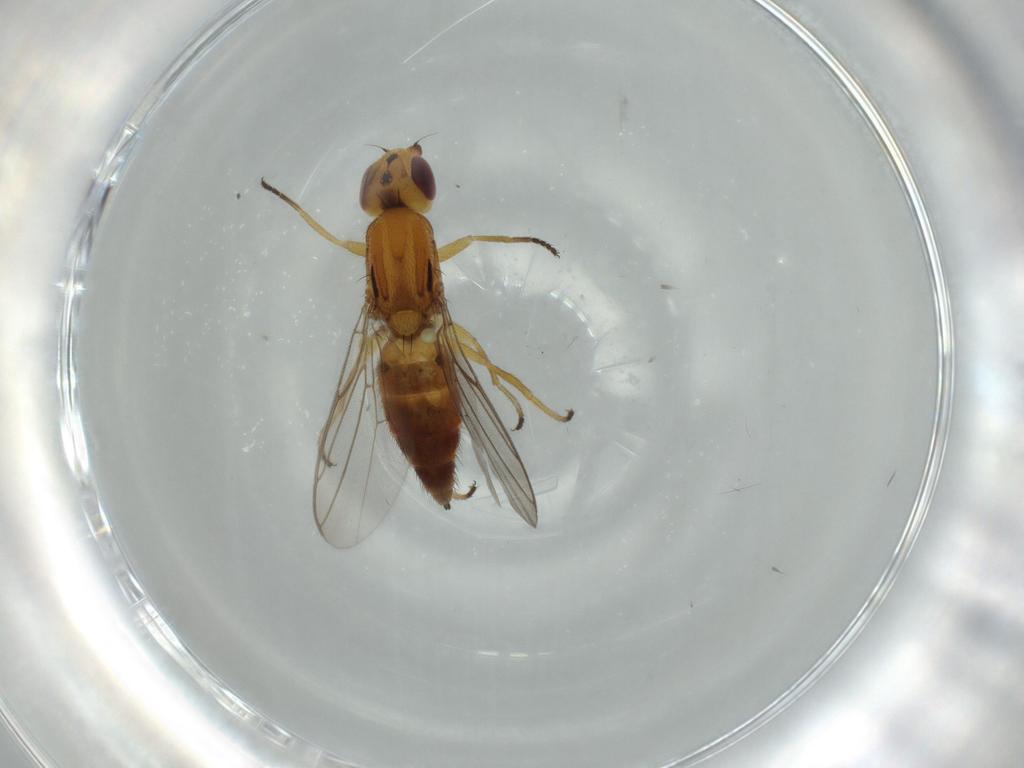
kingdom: Animalia
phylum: Arthropoda
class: Insecta
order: Diptera
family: Chloropidae
